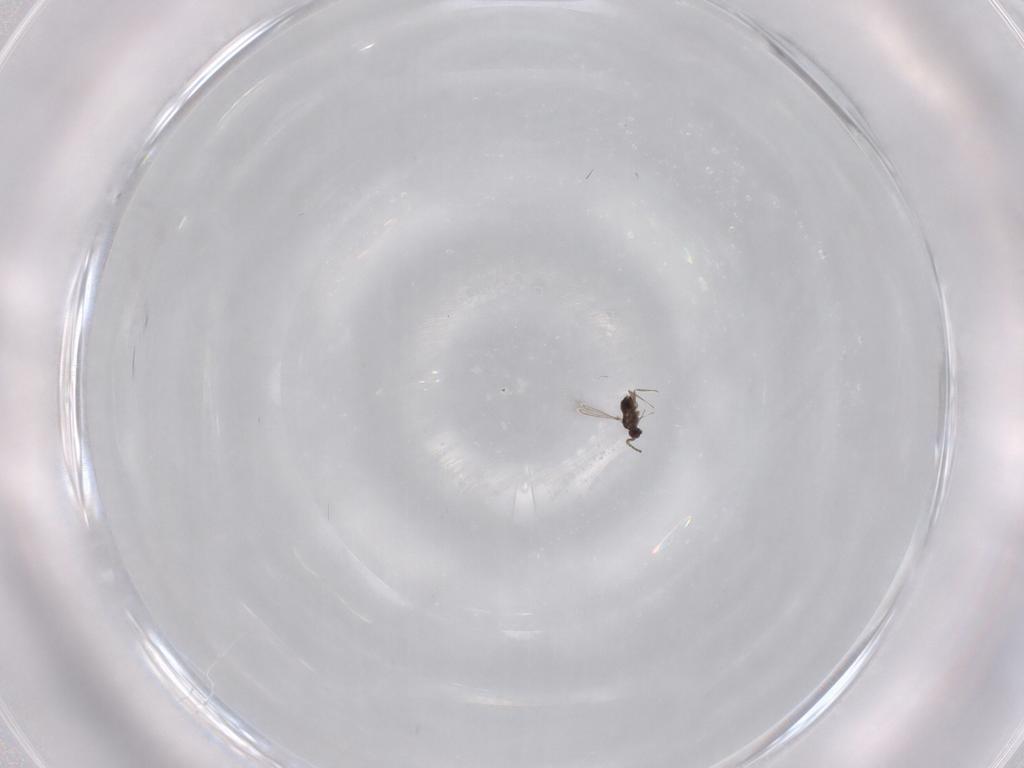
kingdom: Animalia
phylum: Arthropoda
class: Insecta
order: Hymenoptera
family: Mymaridae
